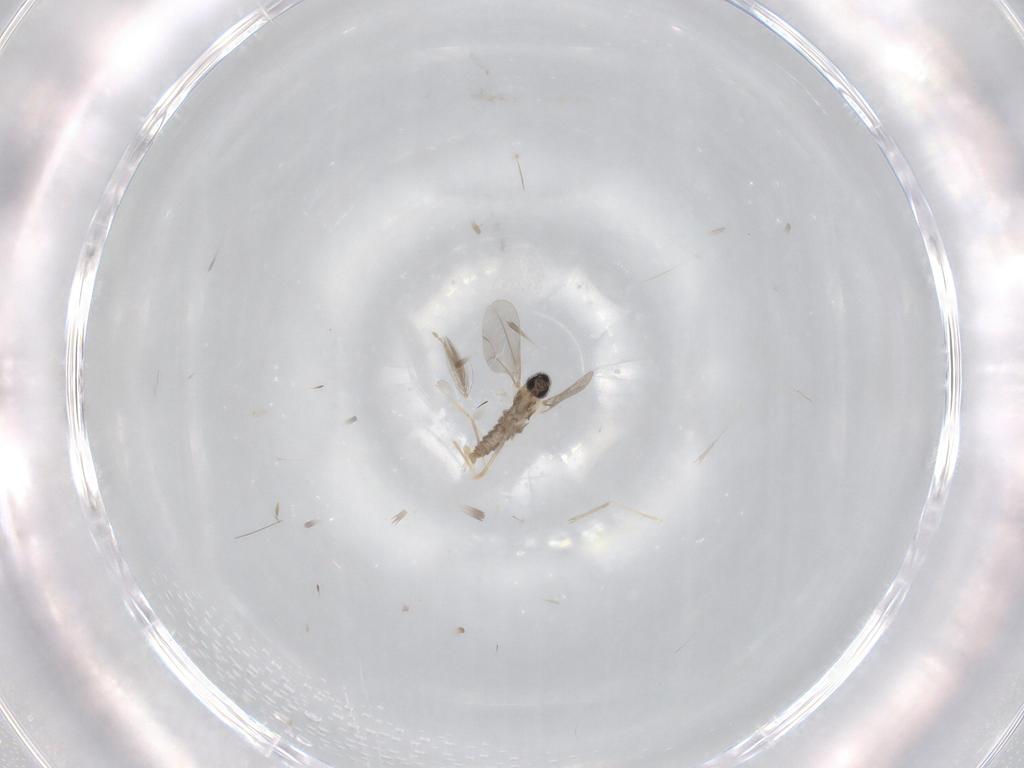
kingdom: Animalia
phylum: Arthropoda
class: Insecta
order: Diptera
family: Cecidomyiidae
